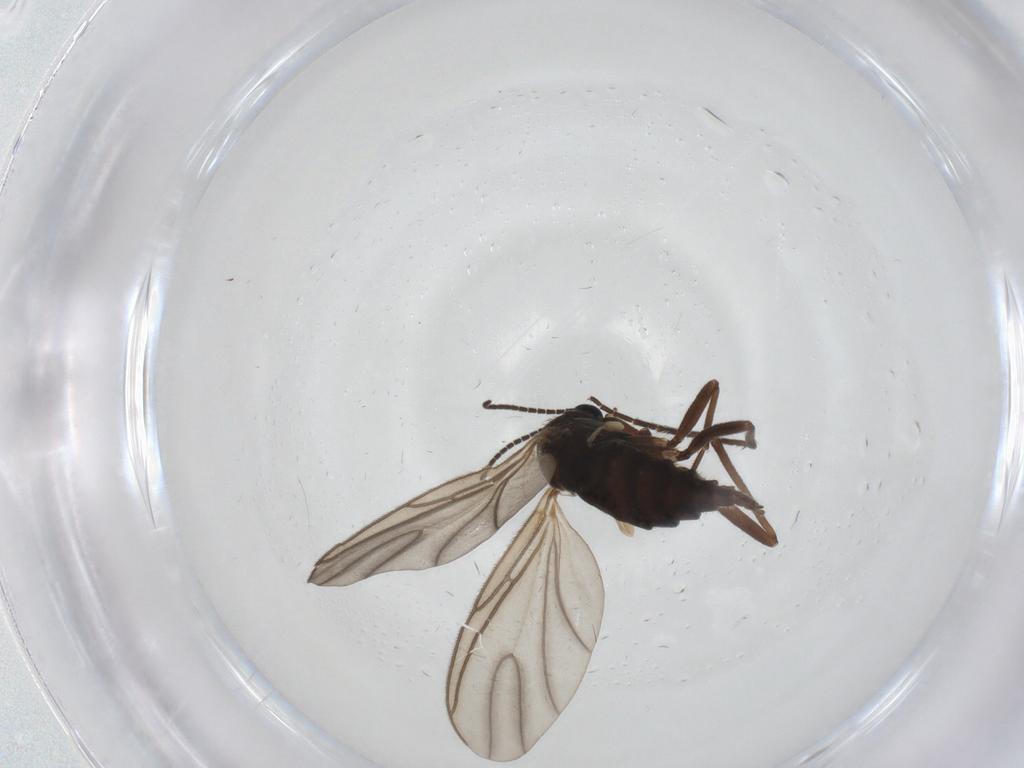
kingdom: Animalia
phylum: Arthropoda
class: Insecta
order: Diptera
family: Sciaridae
